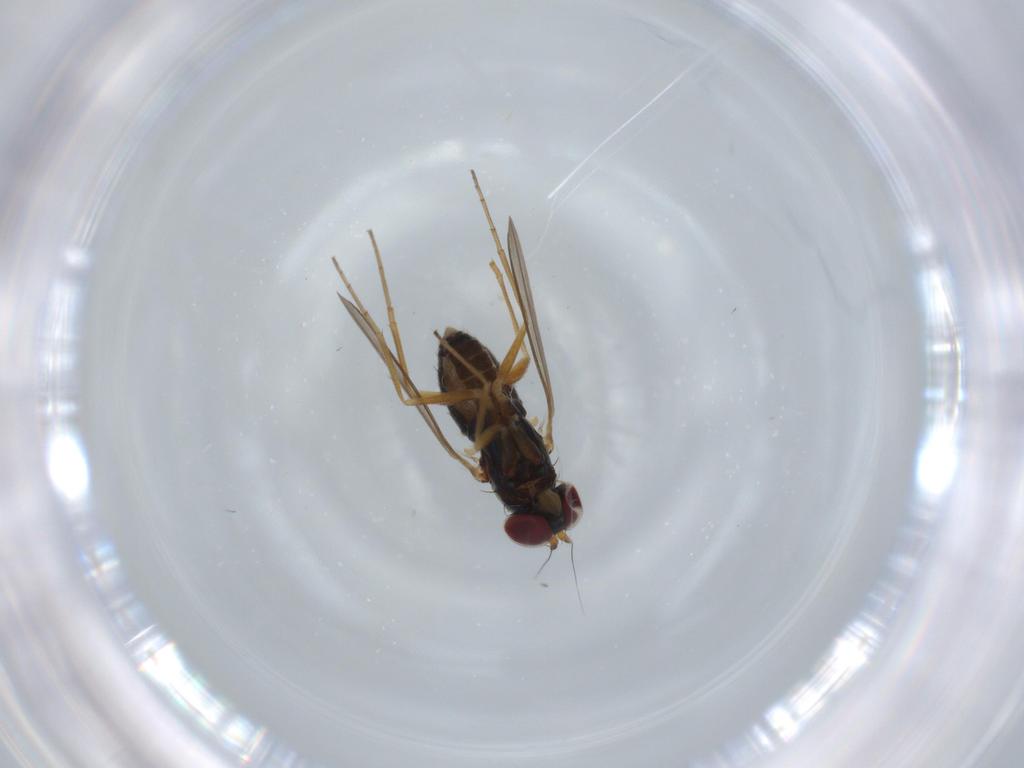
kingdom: Animalia
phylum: Arthropoda
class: Insecta
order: Diptera
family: Dolichopodidae
